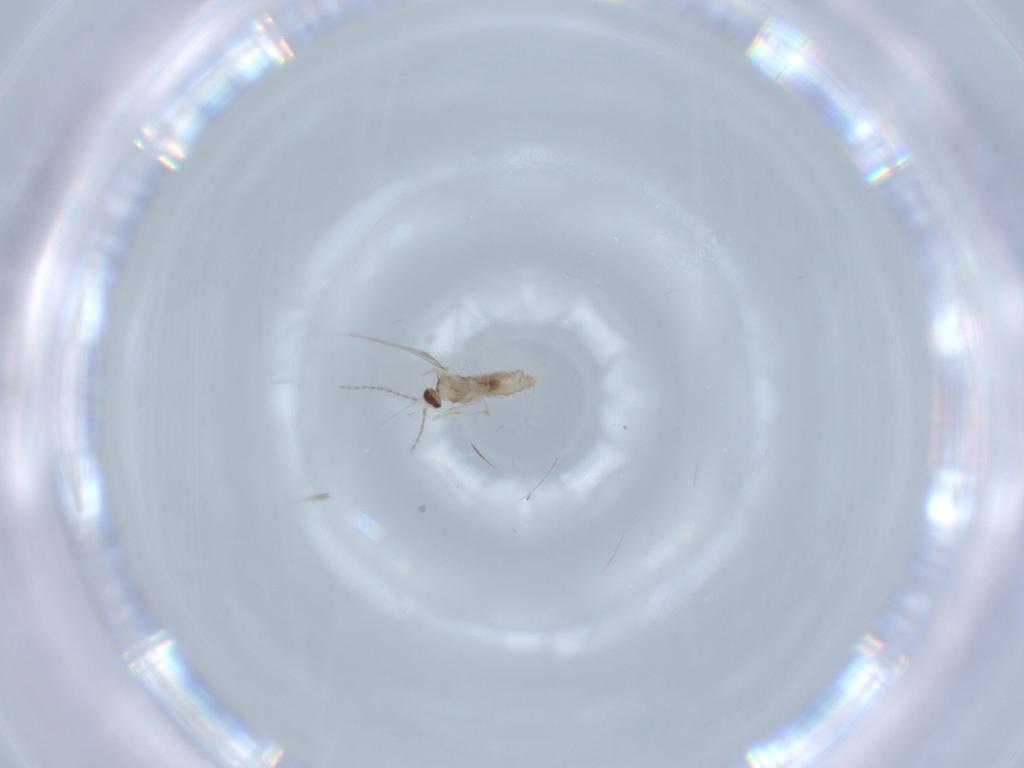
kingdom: Animalia
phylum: Arthropoda
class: Insecta
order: Diptera
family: Cecidomyiidae
